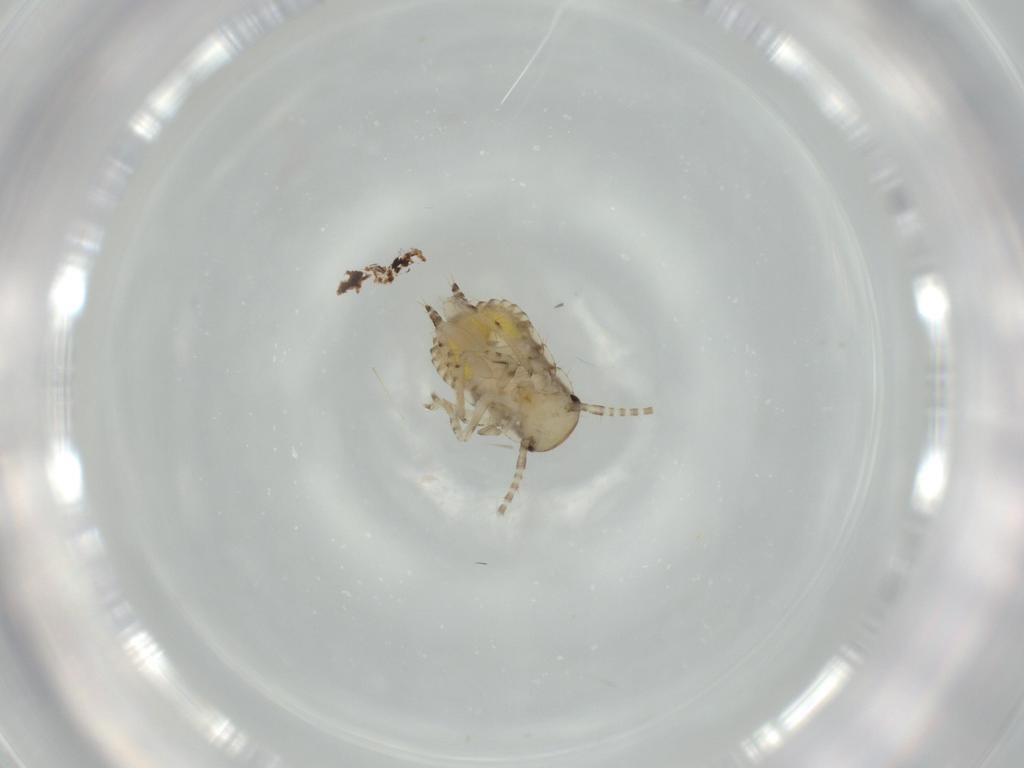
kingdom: Animalia
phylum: Arthropoda
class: Insecta
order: Blattodea
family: Ectobiidae
